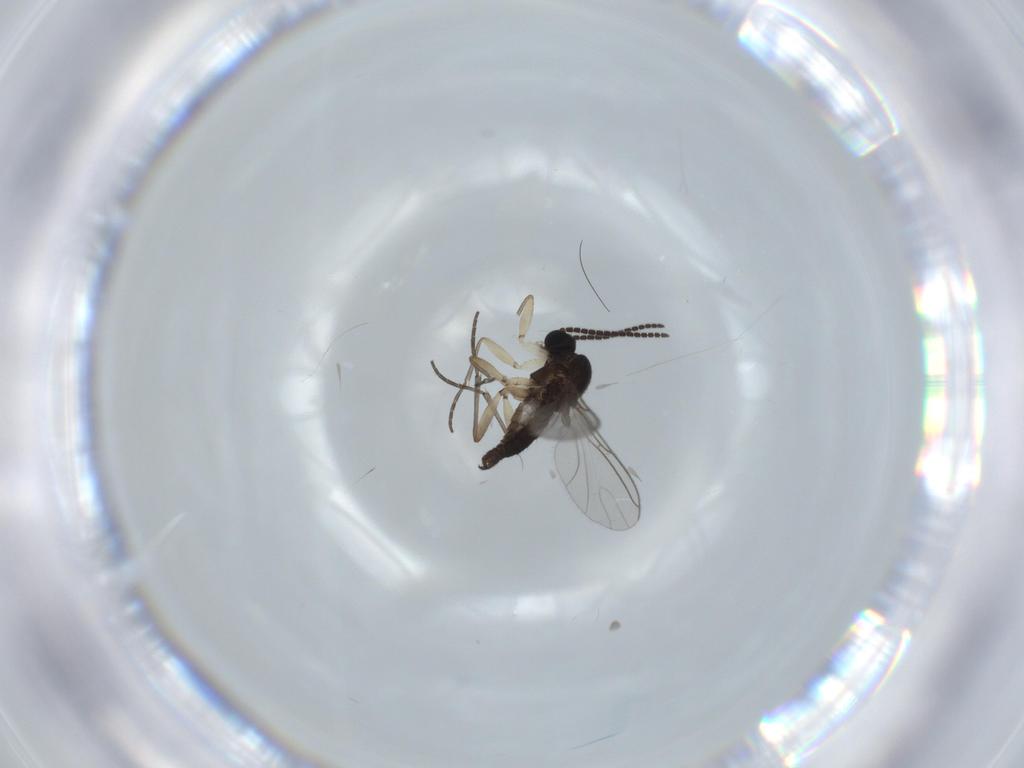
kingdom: Animalia
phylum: Arthropoda
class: Insecta
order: Diptera
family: Sciaridae
